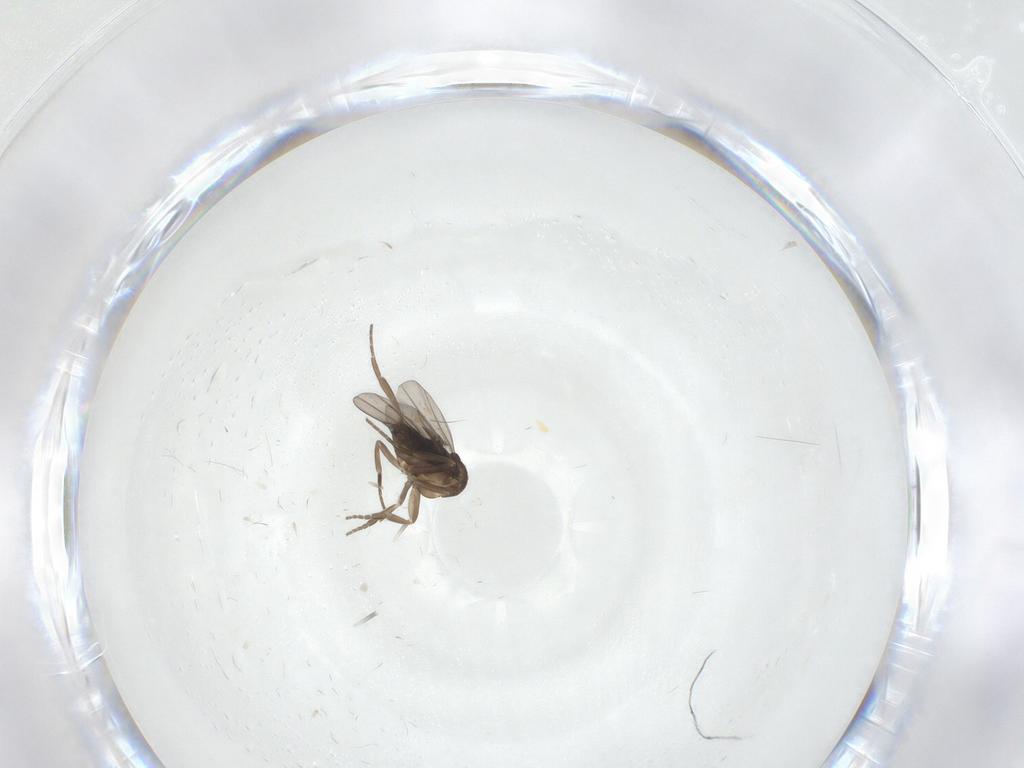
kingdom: Animalia
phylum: Arthropoda
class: Insecta
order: Diptera
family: Phoridae
